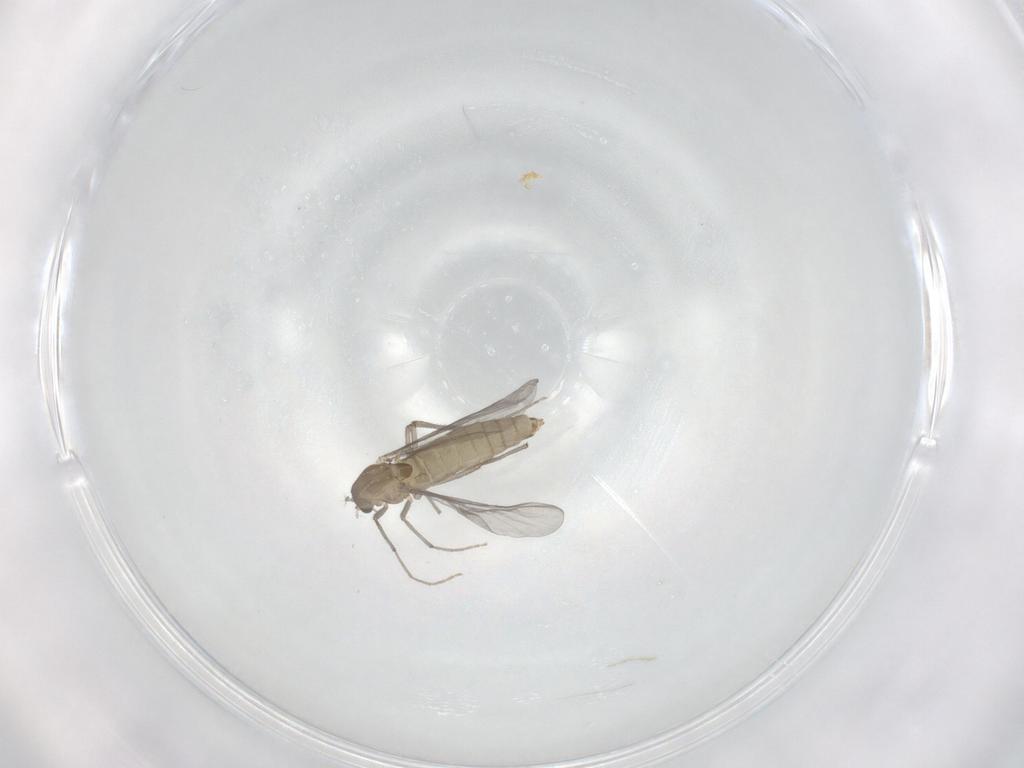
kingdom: Animalia
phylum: Arthropoda
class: Insecta
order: Diptera
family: Chironomidae
